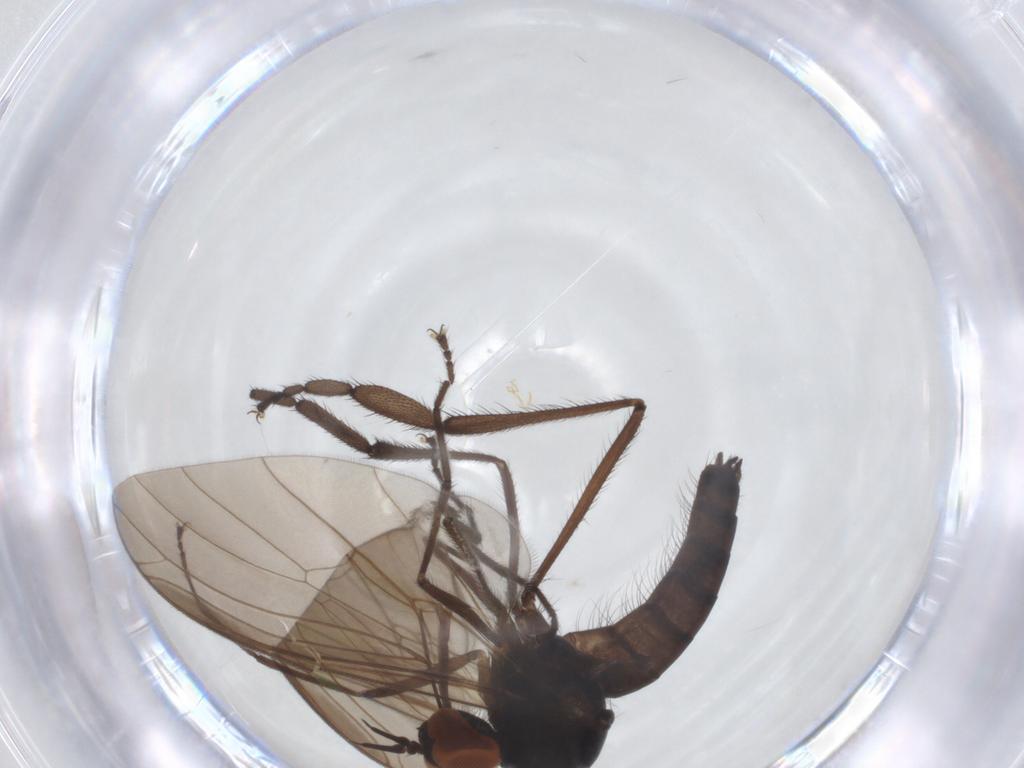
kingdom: Animalia
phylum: Arthropoda
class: Insecta
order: Diptera
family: Empididae
